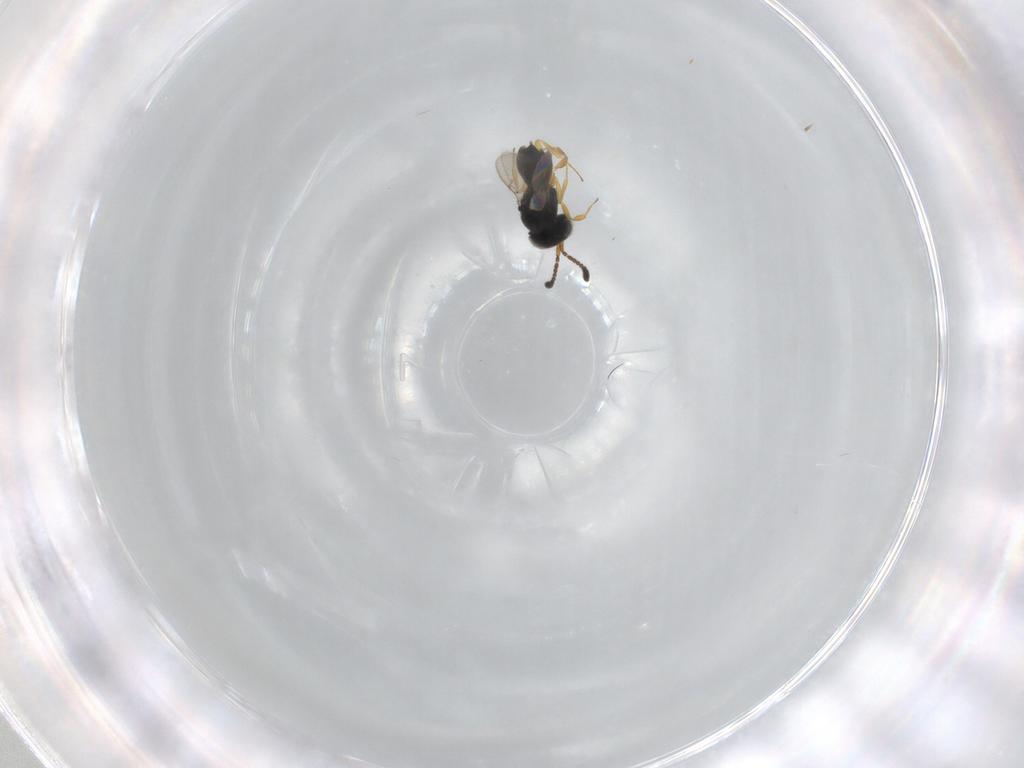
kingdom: Animalia
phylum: Arthropoda
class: Insecta
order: Hymenoptera
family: Scelionidae
